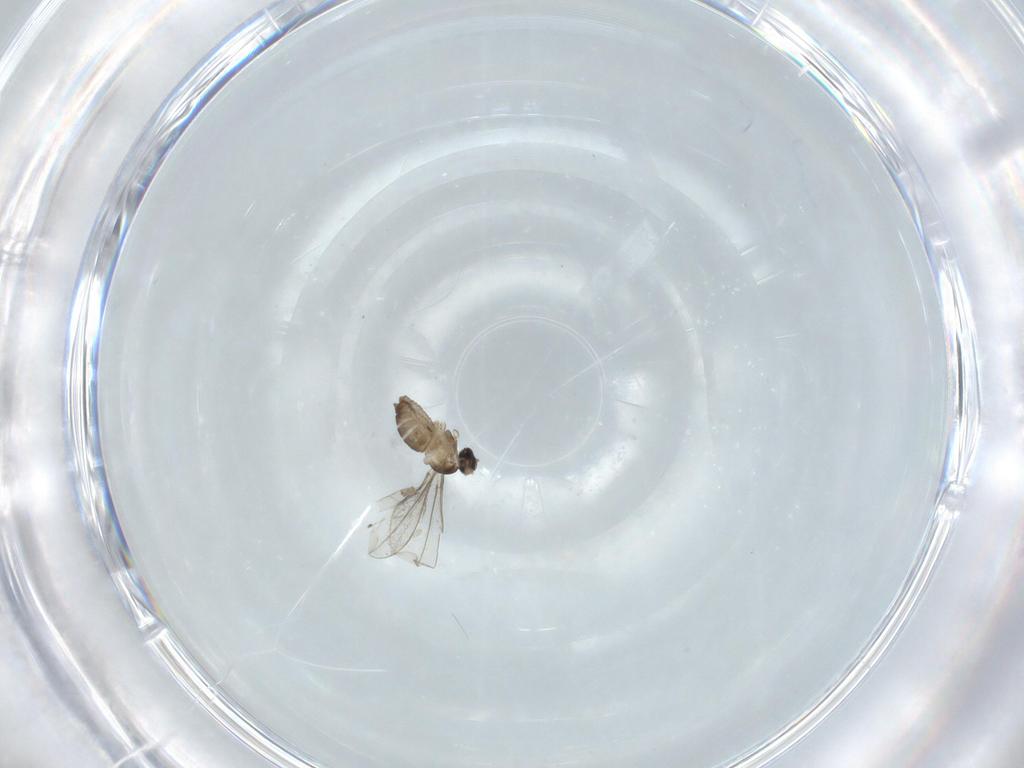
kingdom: Animalia
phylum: Arthropoda
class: Insecta
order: Diptera
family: Cecidomyiidae
